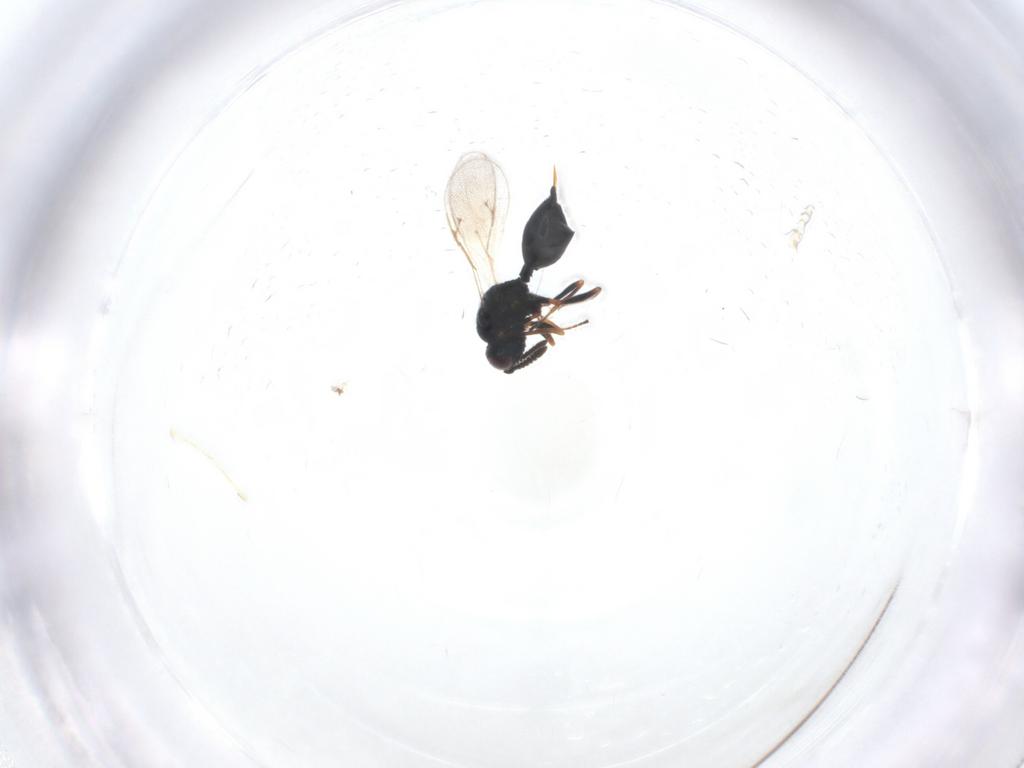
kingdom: Animalia
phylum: Arthropoda
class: Insecta
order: Hymenoptera
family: Chalcidoidea_incertae_sedis
